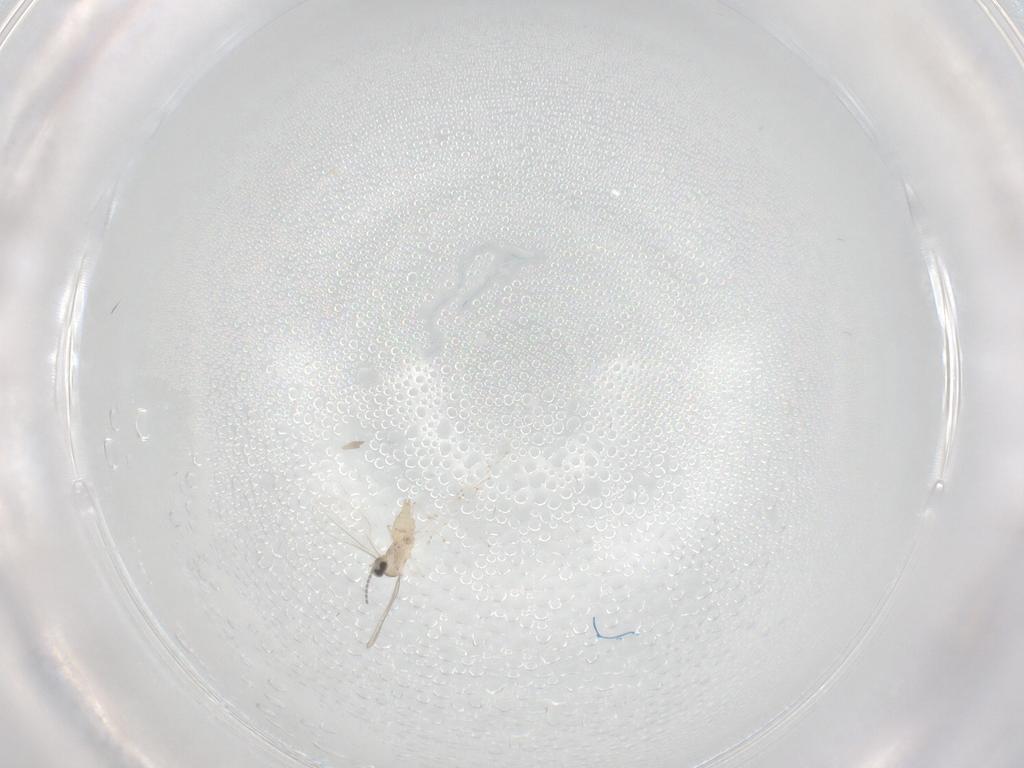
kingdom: Animalia
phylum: Arthropoda
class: Insecta
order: Diptera
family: Cecidomyiidae
